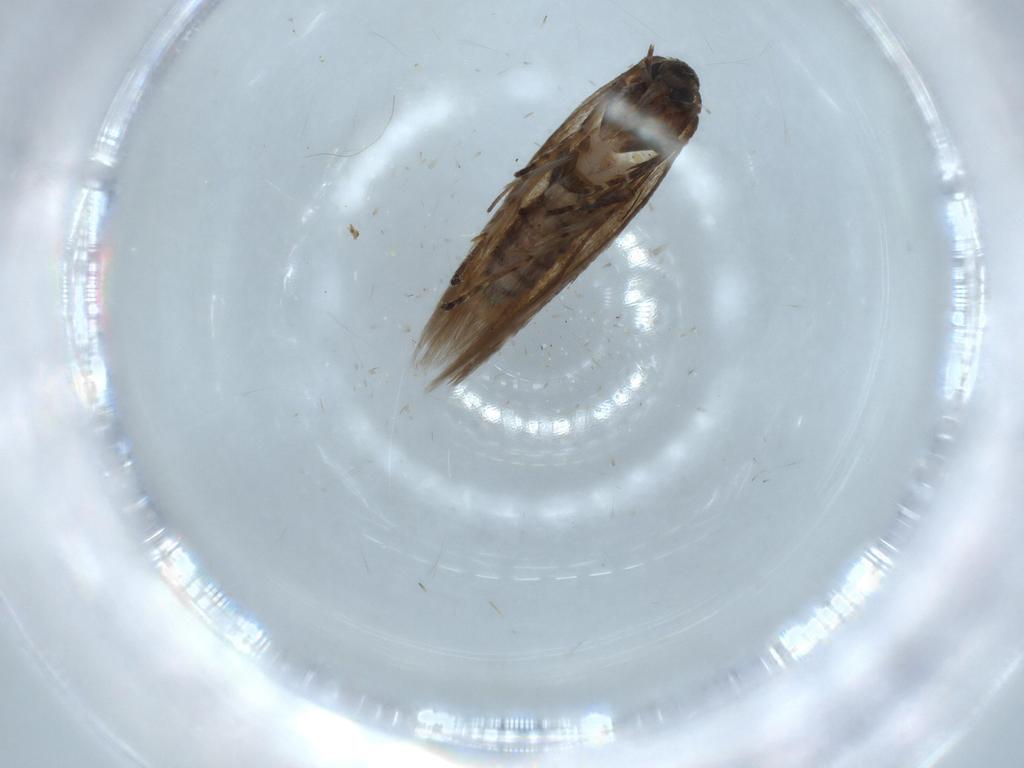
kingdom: Animalia
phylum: Arthropoda
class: Insecta
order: Lepidoptera
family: Cosmopterigidae
